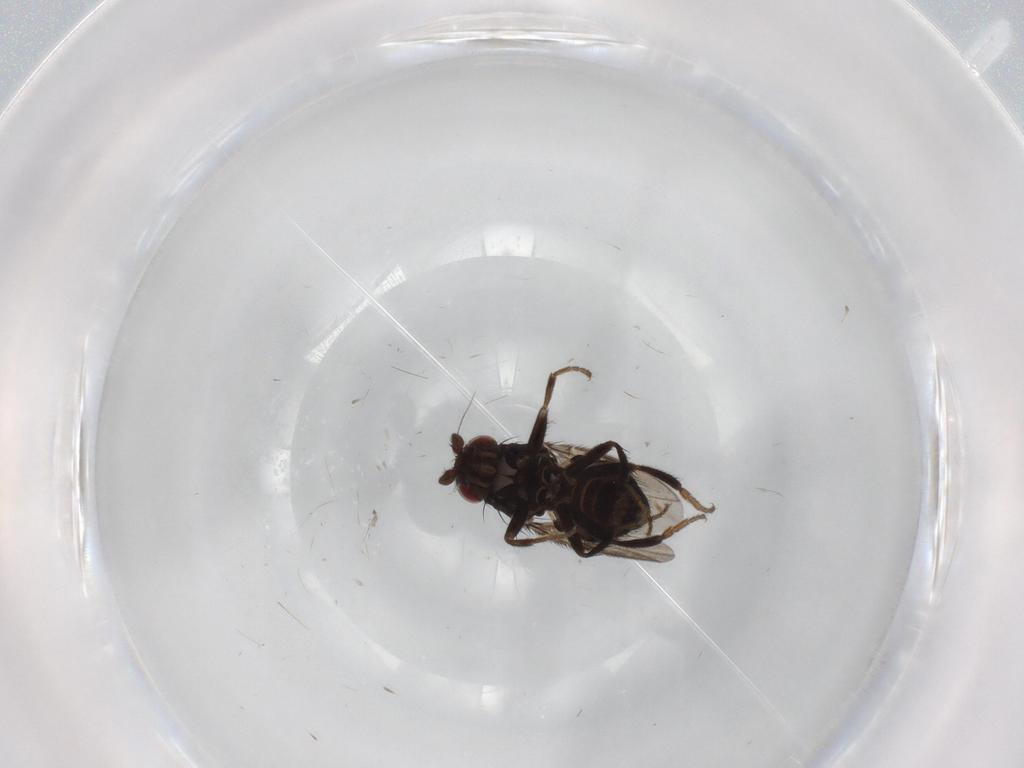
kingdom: Animalia
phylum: Arthropoda
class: Insecta
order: Diptera
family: Sphaeroceridae
